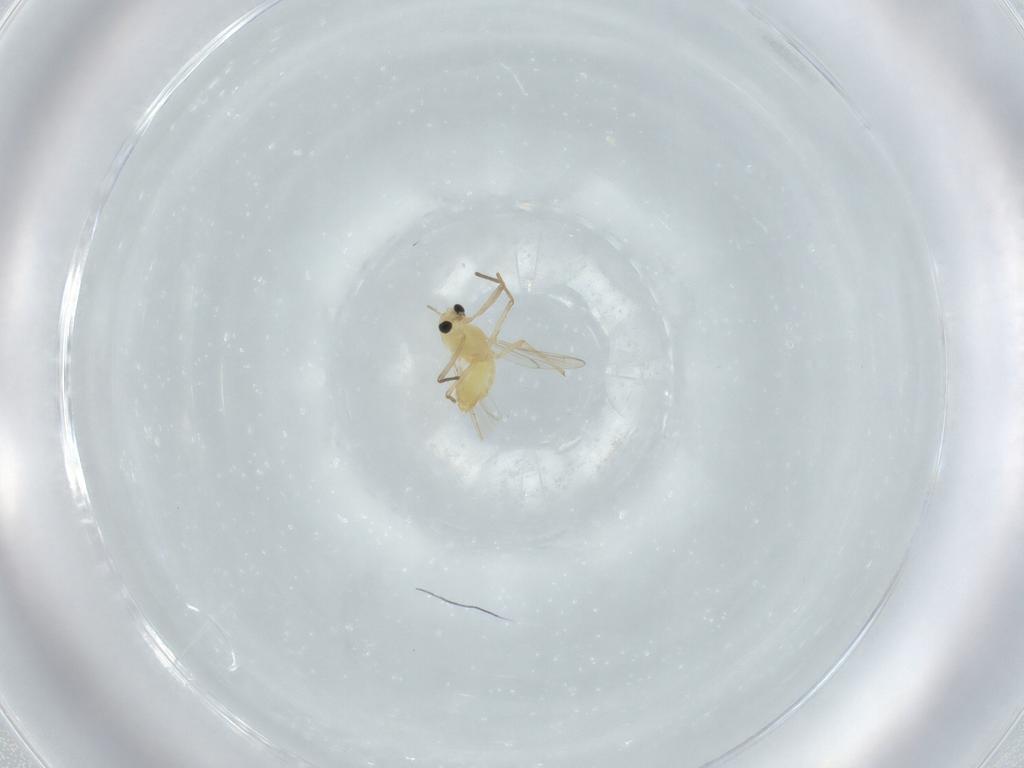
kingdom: Animalia
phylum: Arthropoda
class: Insecta
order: Diptera
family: Chironomidae
